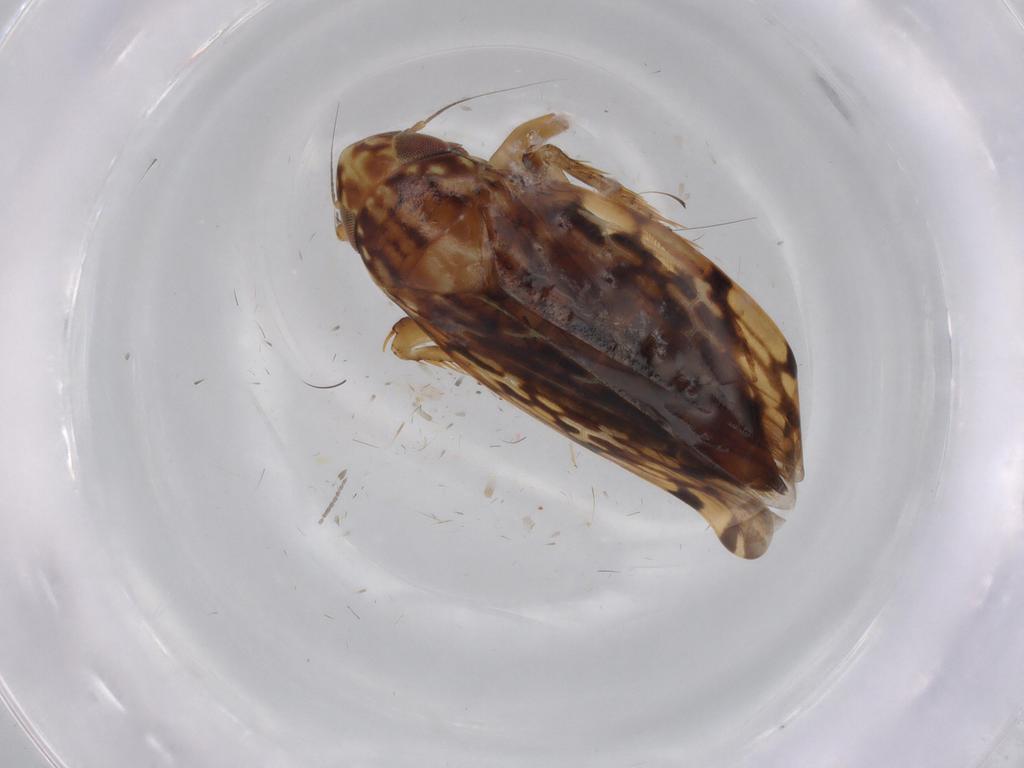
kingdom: Animalia
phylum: Arthropoda
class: Insecta
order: Hemiptera
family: Cicadellidae
